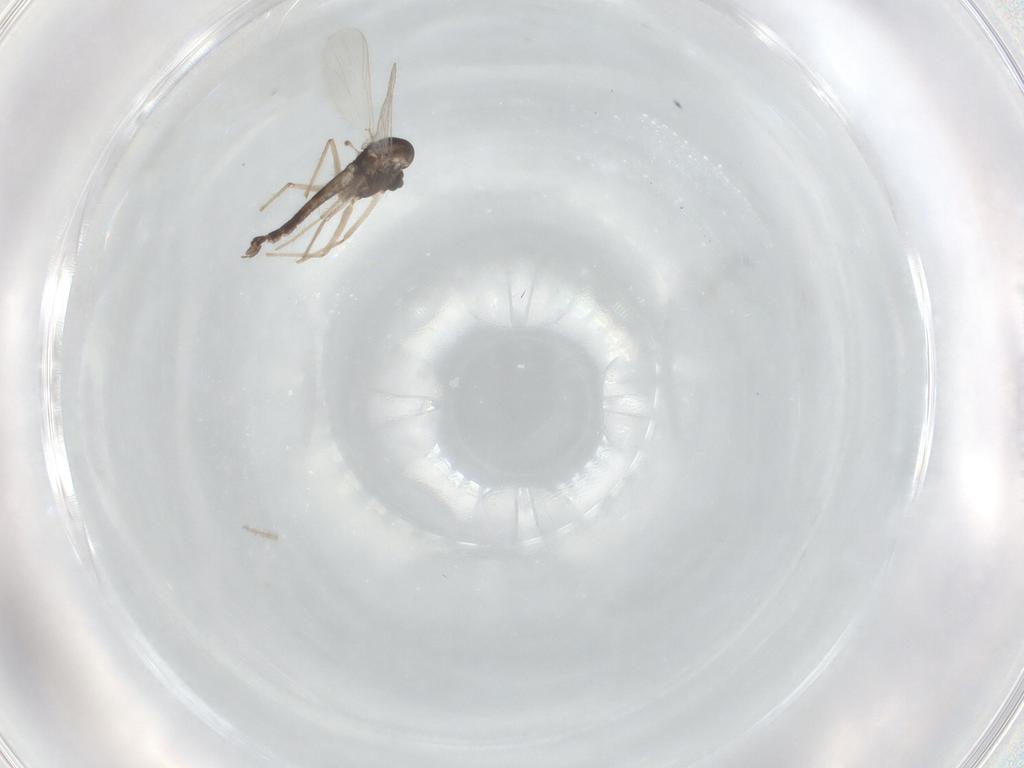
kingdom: Animalia
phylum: Arthropoda
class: Insecta
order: Diptera
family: Chironomidae
